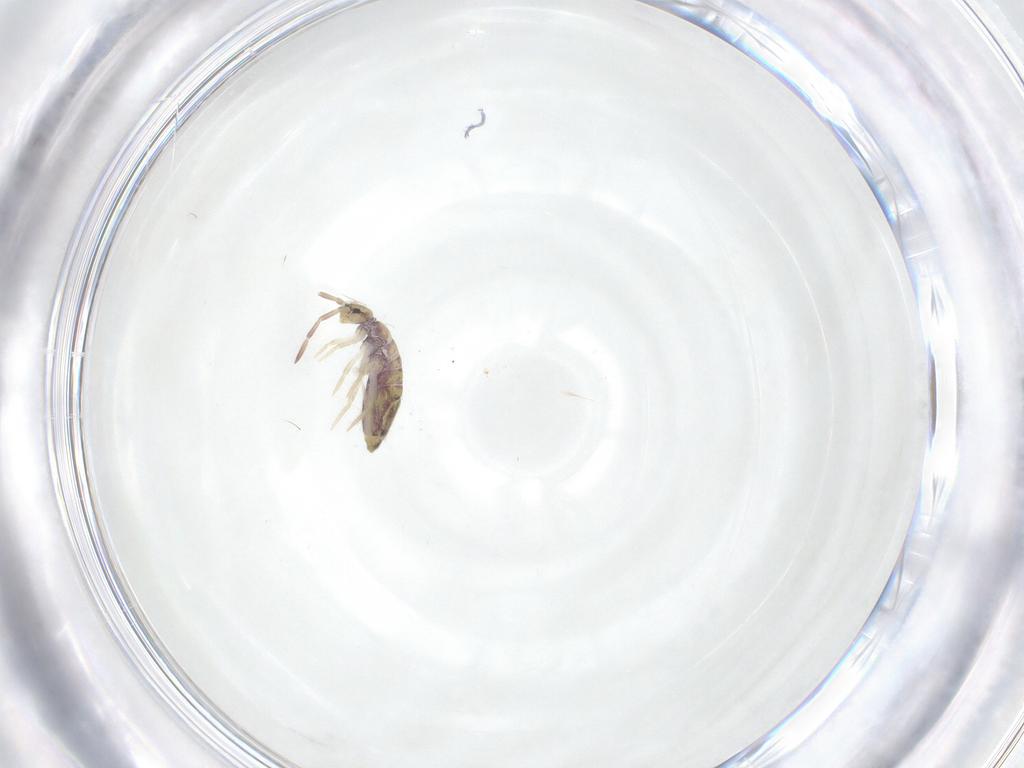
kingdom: Animalia
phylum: Arthropoda
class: Collembola
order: Entomobryomorpha
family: Entomobryidae
